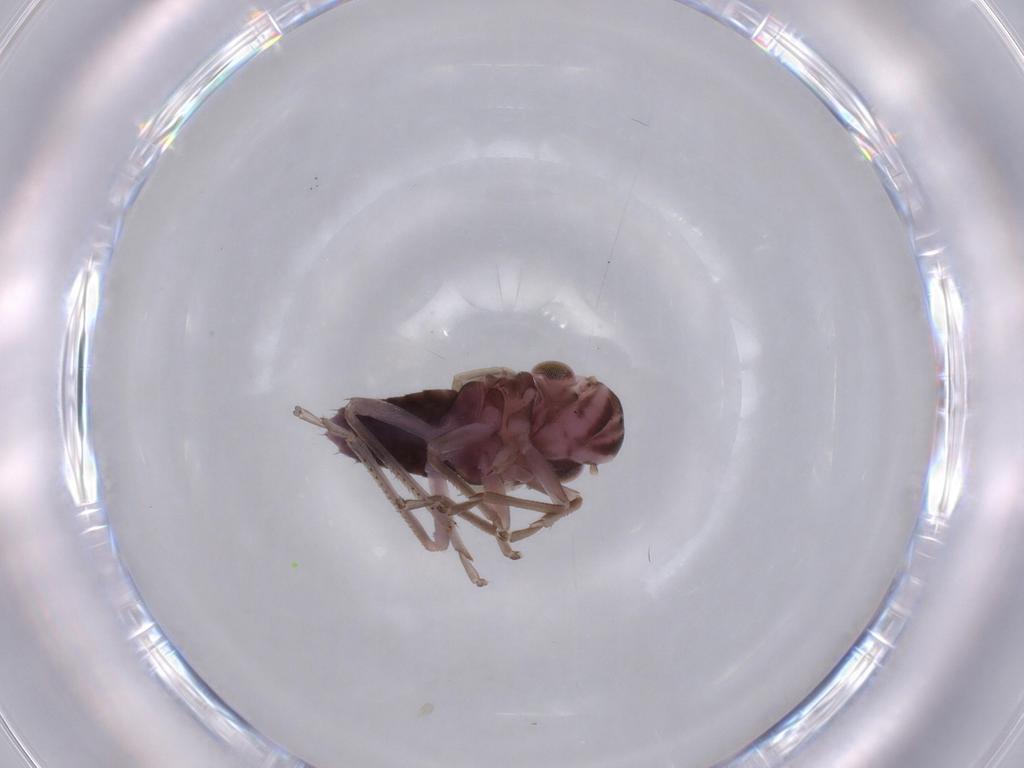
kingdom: Animalia
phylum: Arthropoda
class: Insecta
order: Hemiptera
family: Cicadellidae
